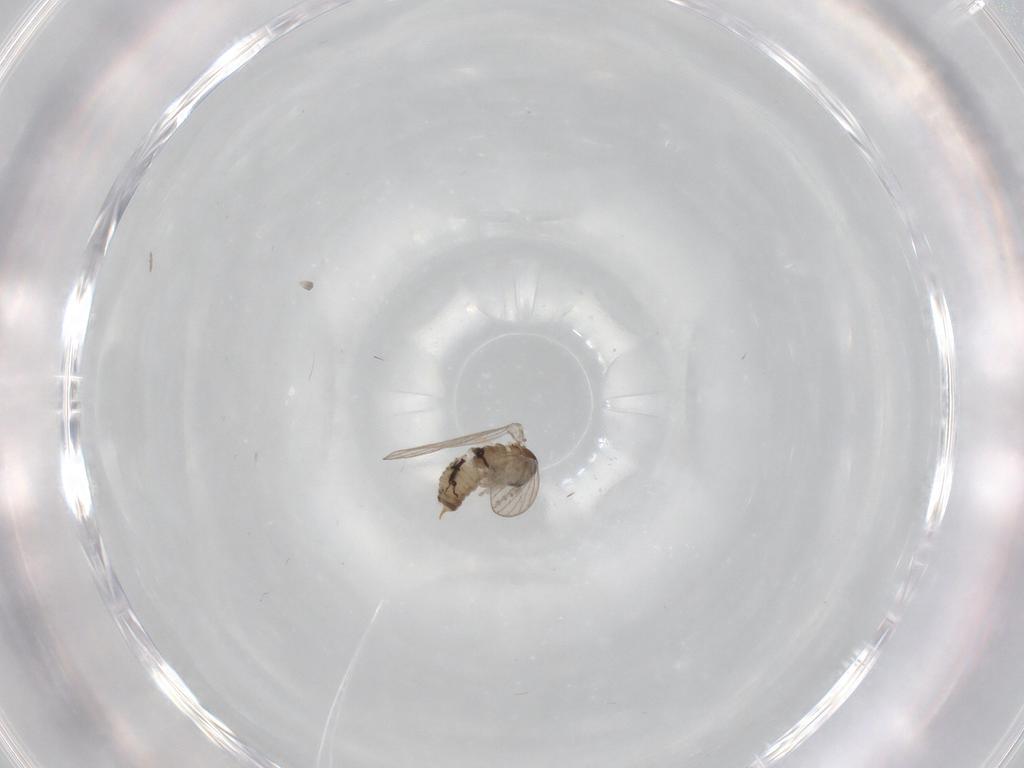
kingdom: Animalia
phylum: Arthropoda
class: Insecta
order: Diptera
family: Psychodidae
